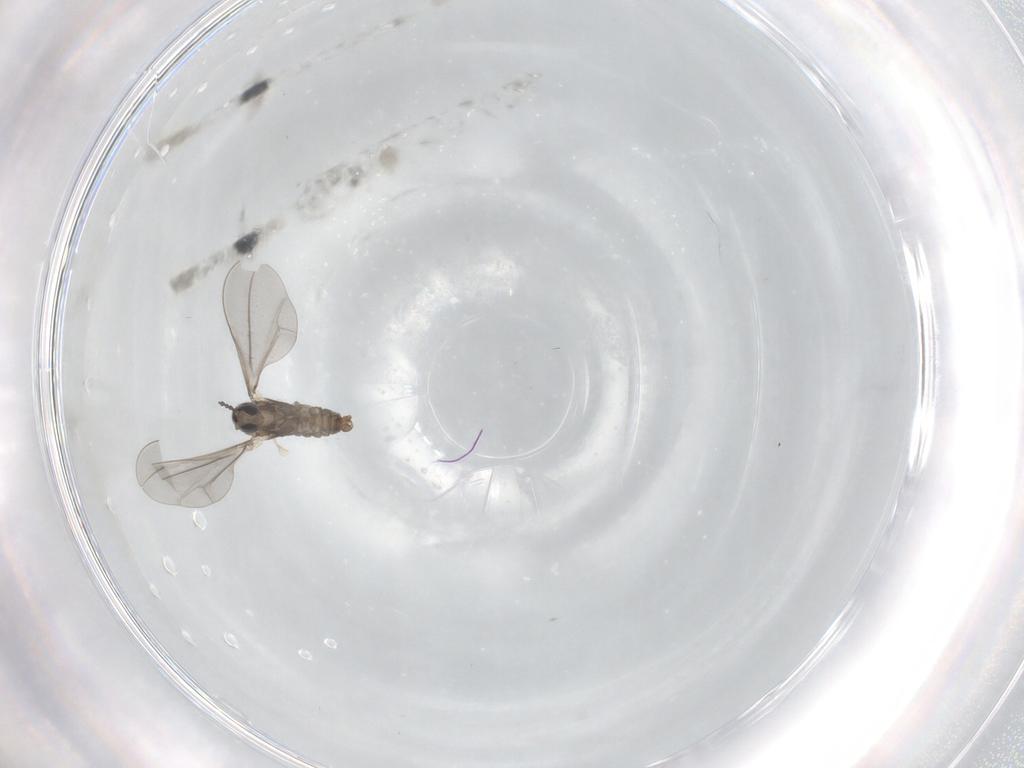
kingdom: Animalia
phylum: Arthropoda
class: Insecta
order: Diptera
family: Cecidomyiidae
